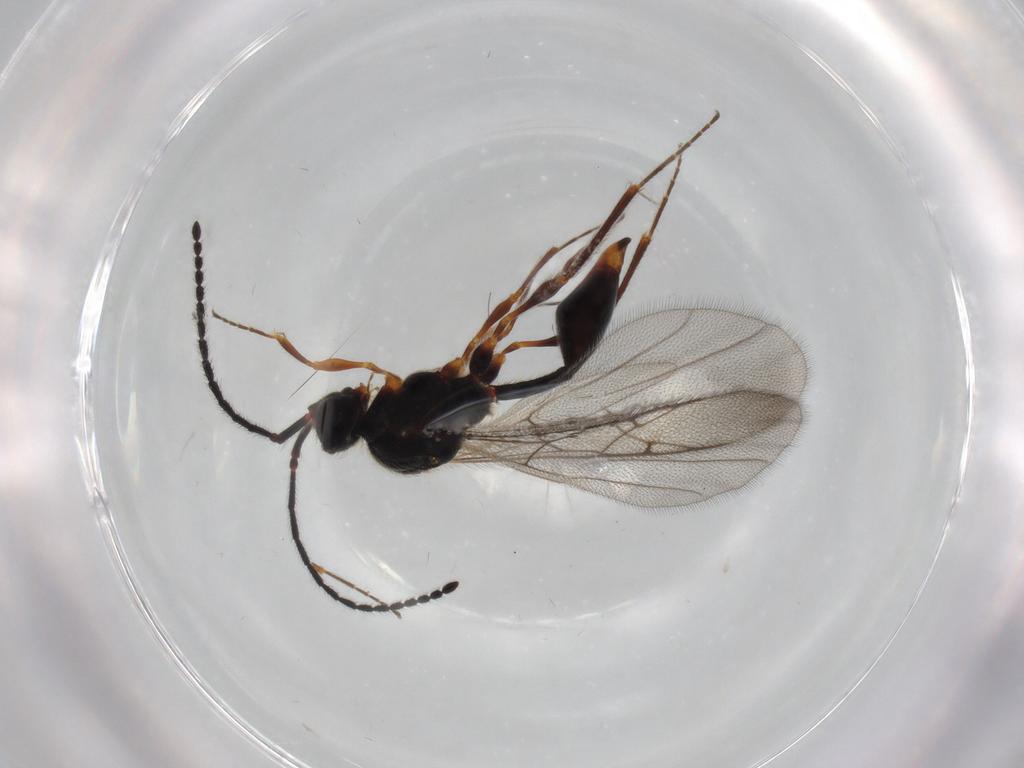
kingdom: Animalia
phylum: Arthropoda
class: Insecta
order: Hymenoptera
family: Diapriidae
